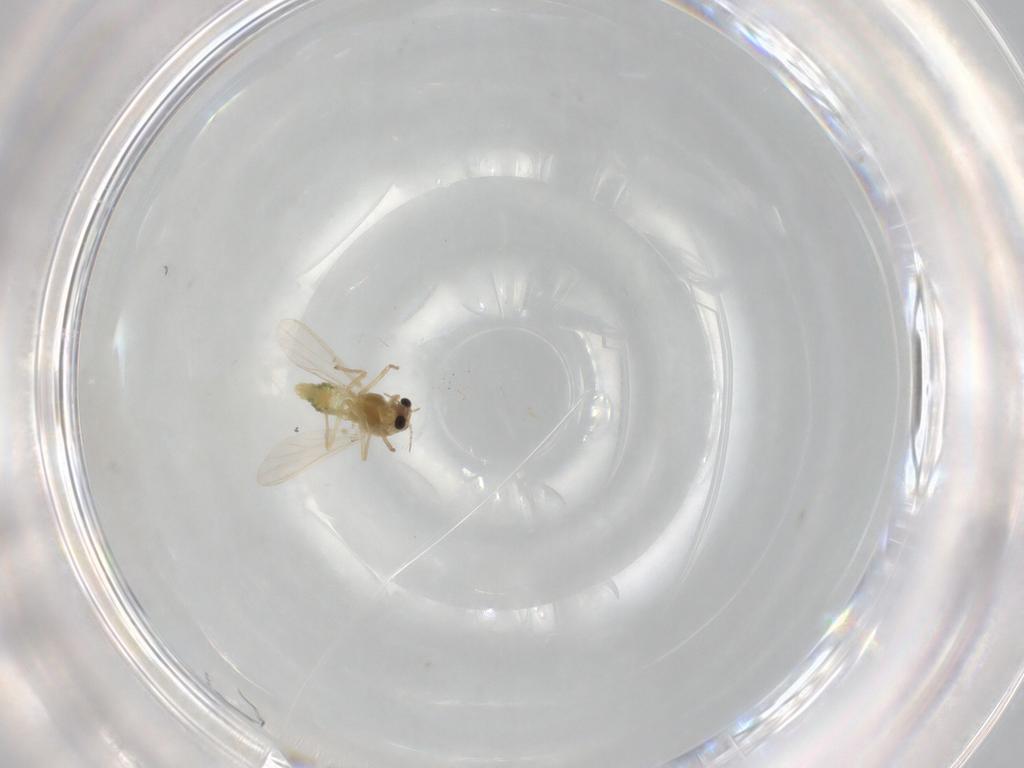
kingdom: Animalia
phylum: Arthropoda
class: Insecta
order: Diptera
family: Chironomidae
